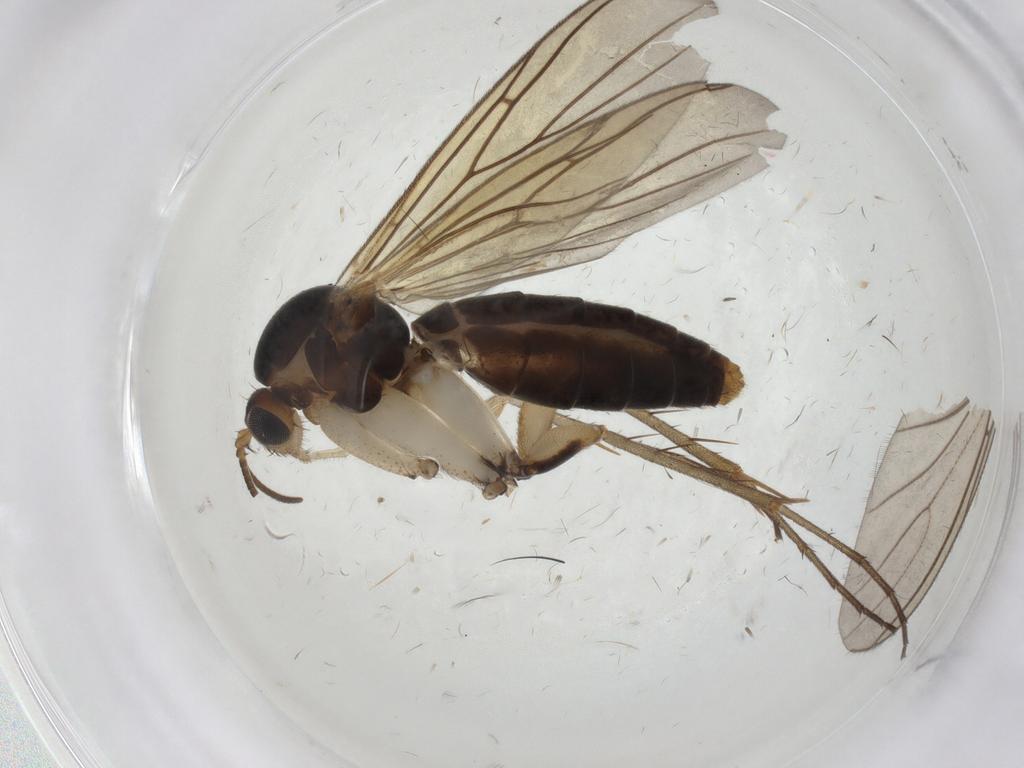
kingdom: Animalia
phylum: Arthropoda
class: Insecta
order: Diptera
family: Mycetophilidae
